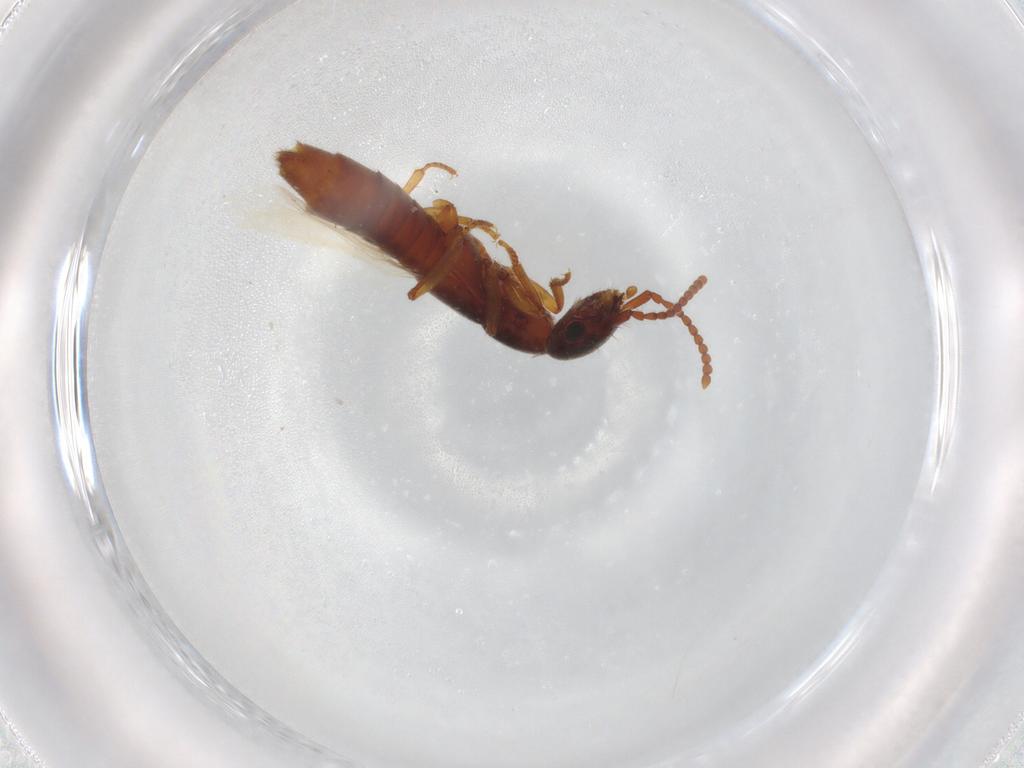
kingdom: Animalia
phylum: Arthropoda
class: Insecta
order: Coleoptera
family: Staphylinidae
